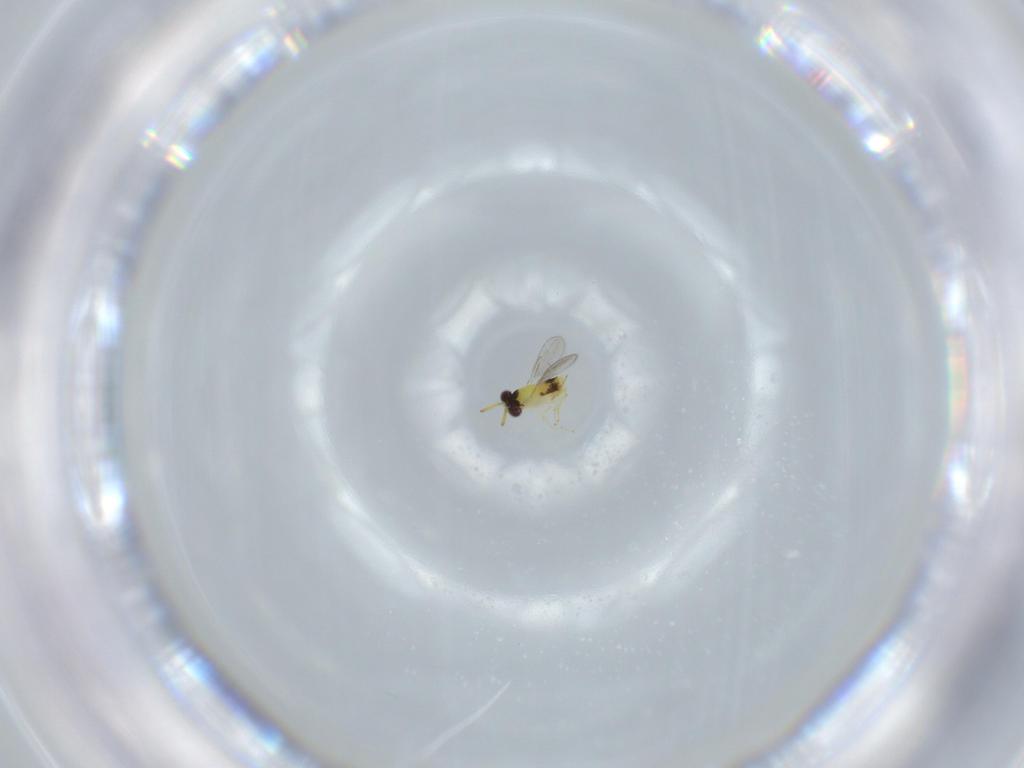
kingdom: Animalia
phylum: Arthropoda
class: Insecta
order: Hymenoptera
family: Aphelinidae
